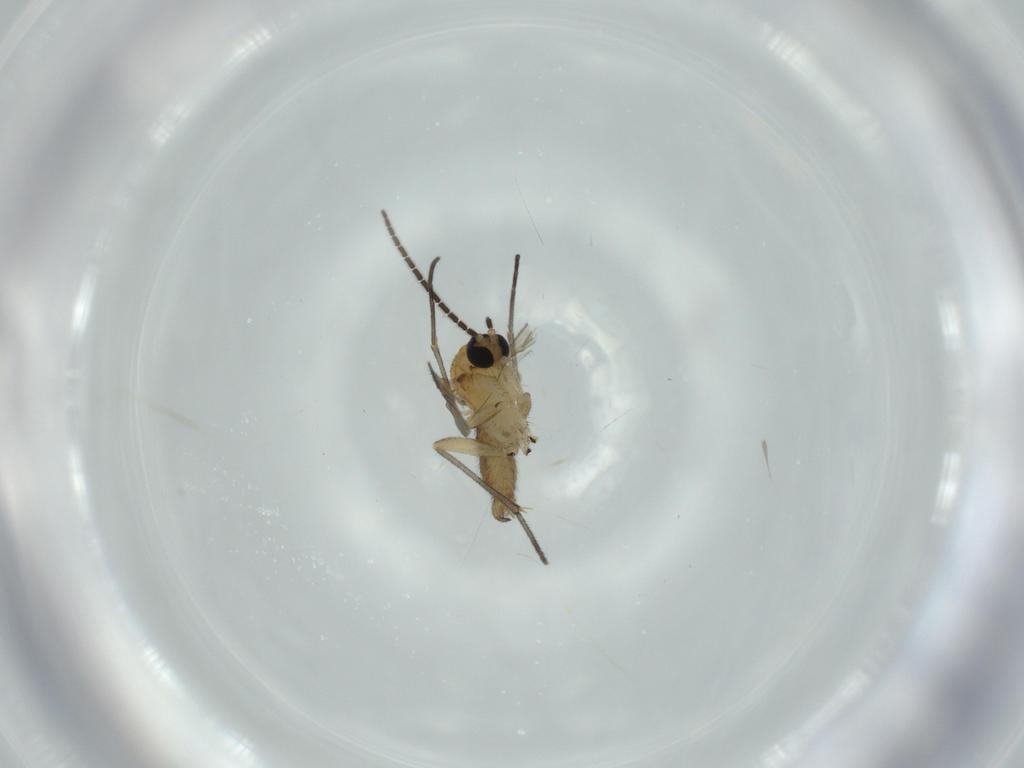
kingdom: Animalia
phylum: Arthropoda
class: Insecta
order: Diptera
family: Sciaridae
